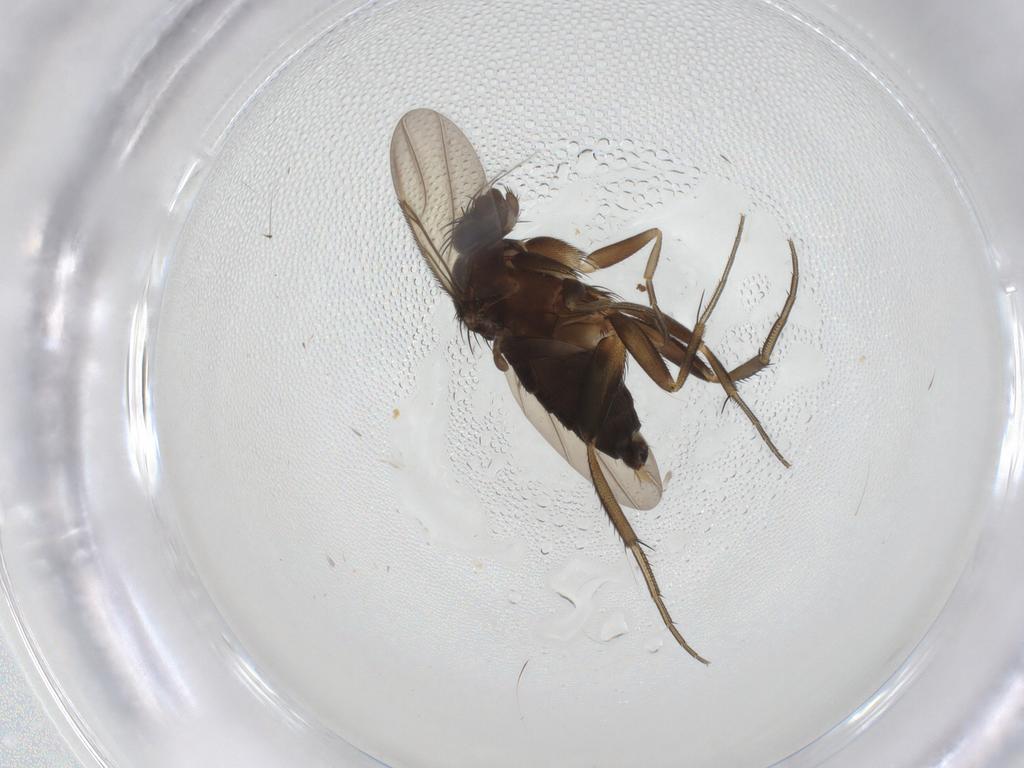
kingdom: Animalia
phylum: Arthropoda
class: Insecta
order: Diptera
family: Phoridae
